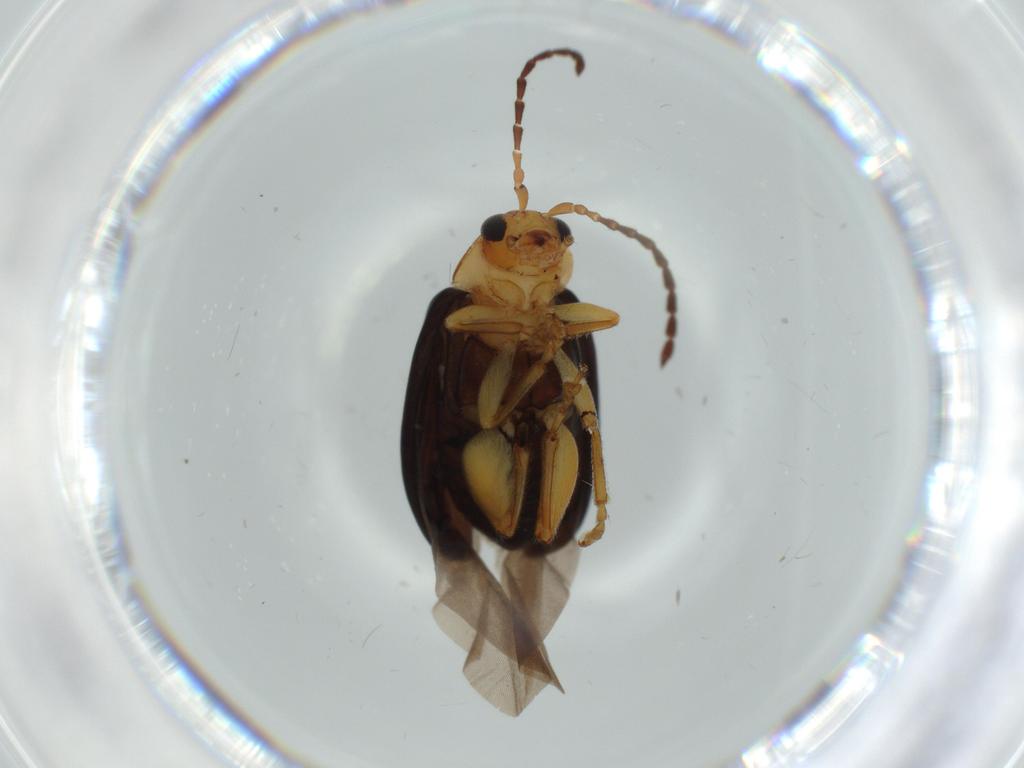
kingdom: Animalia
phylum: Arthropoda
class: Insecta
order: Coleoptera
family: Chrysomelidae
